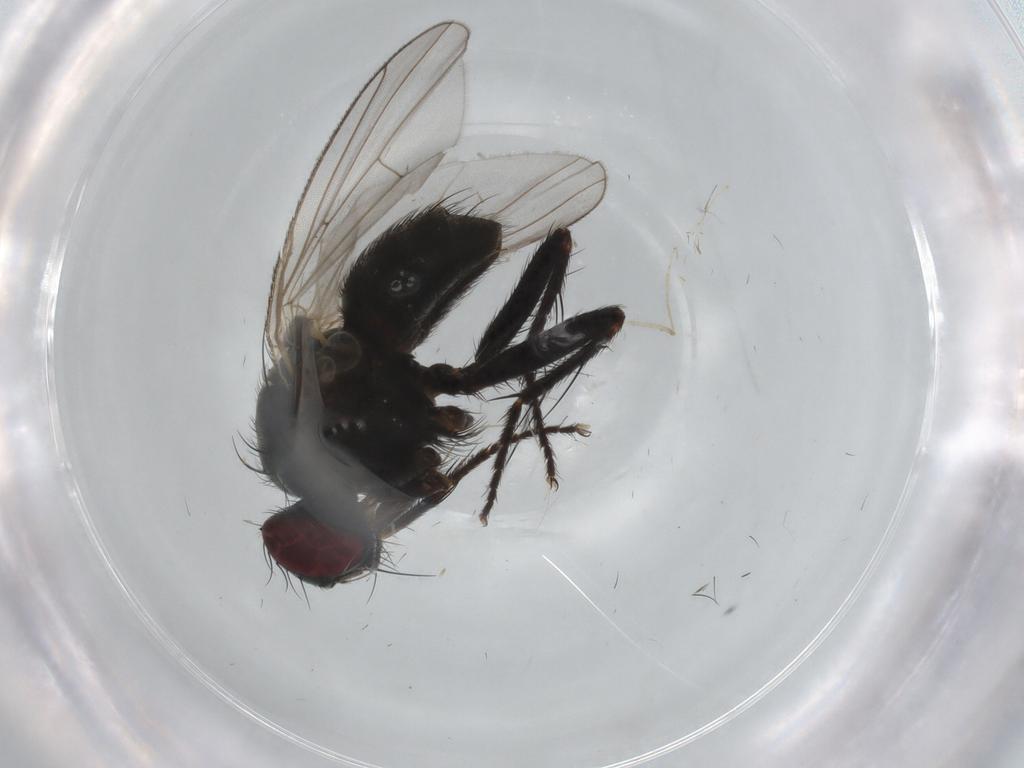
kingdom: Animalia
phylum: Arthropoda
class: Insecta
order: Diptera
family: Muscidae
